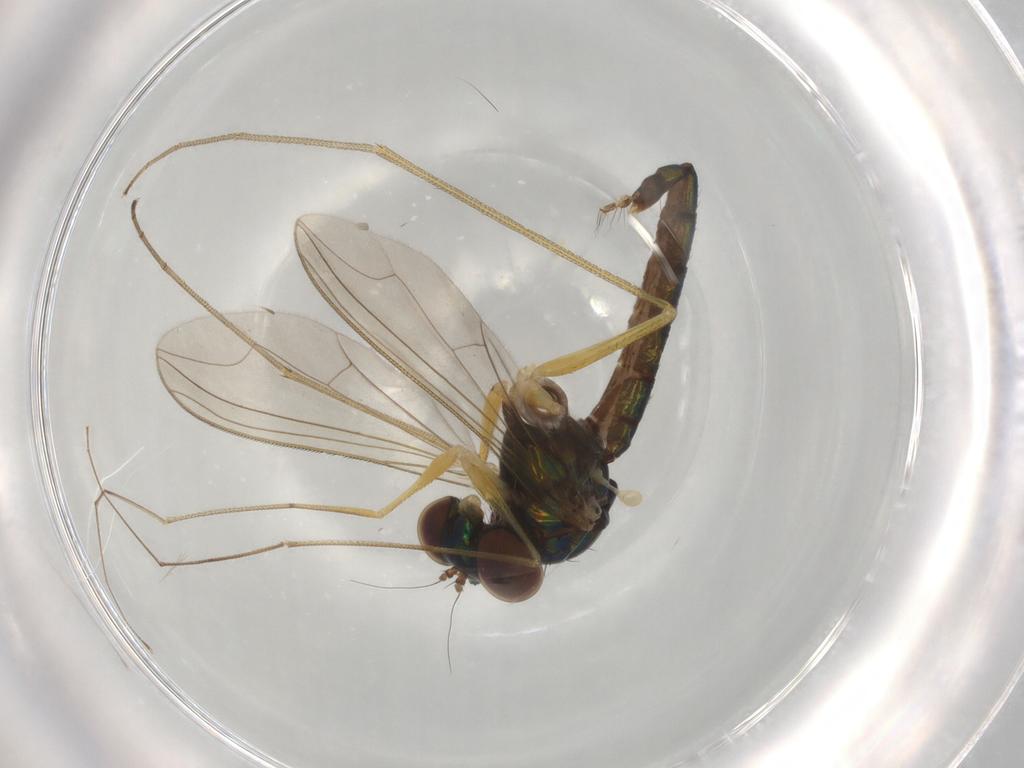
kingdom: Animalia
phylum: Arthropoda
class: Insecta
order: Diptera
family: Dolichopodidae
